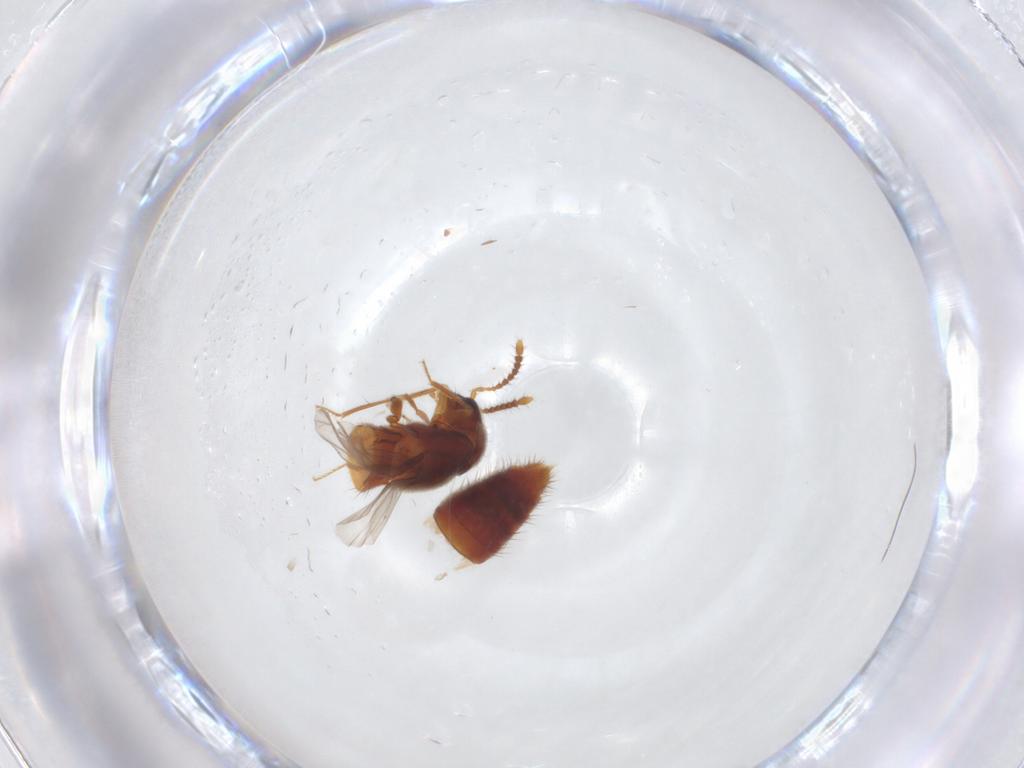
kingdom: Animalia
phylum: Arthropoda
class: Insecta
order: Coleoptera
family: Staphylinidae
